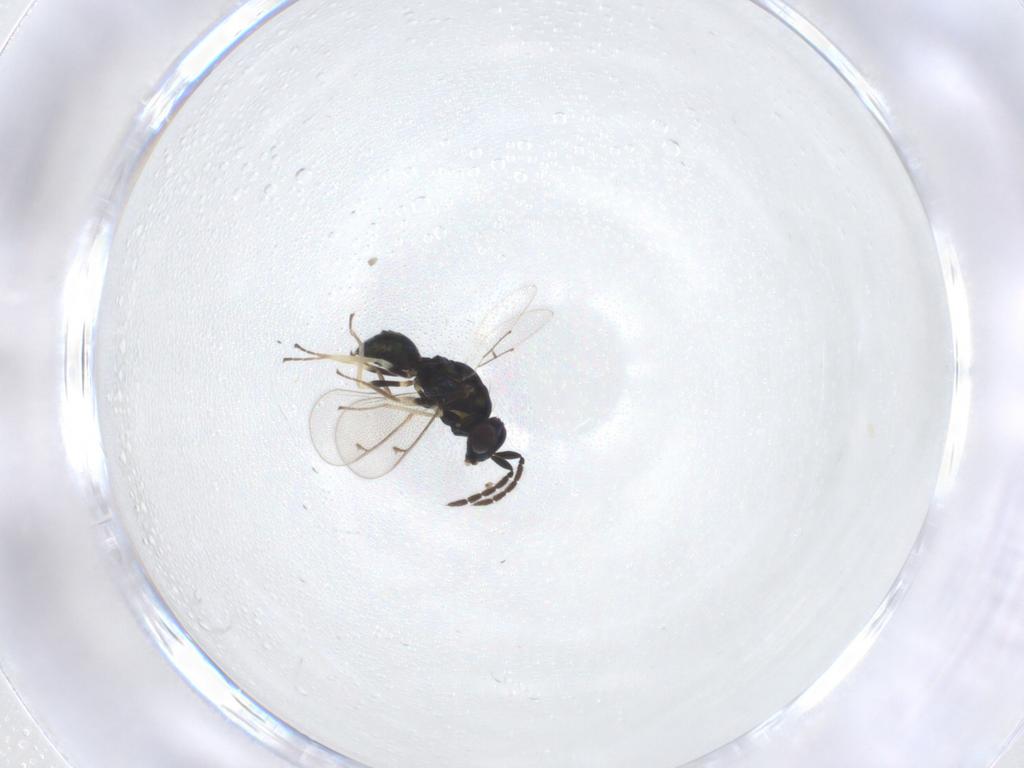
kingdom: Animalia
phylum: Arthropoda
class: Insecta
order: Hymenoptera
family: Eulophidae
